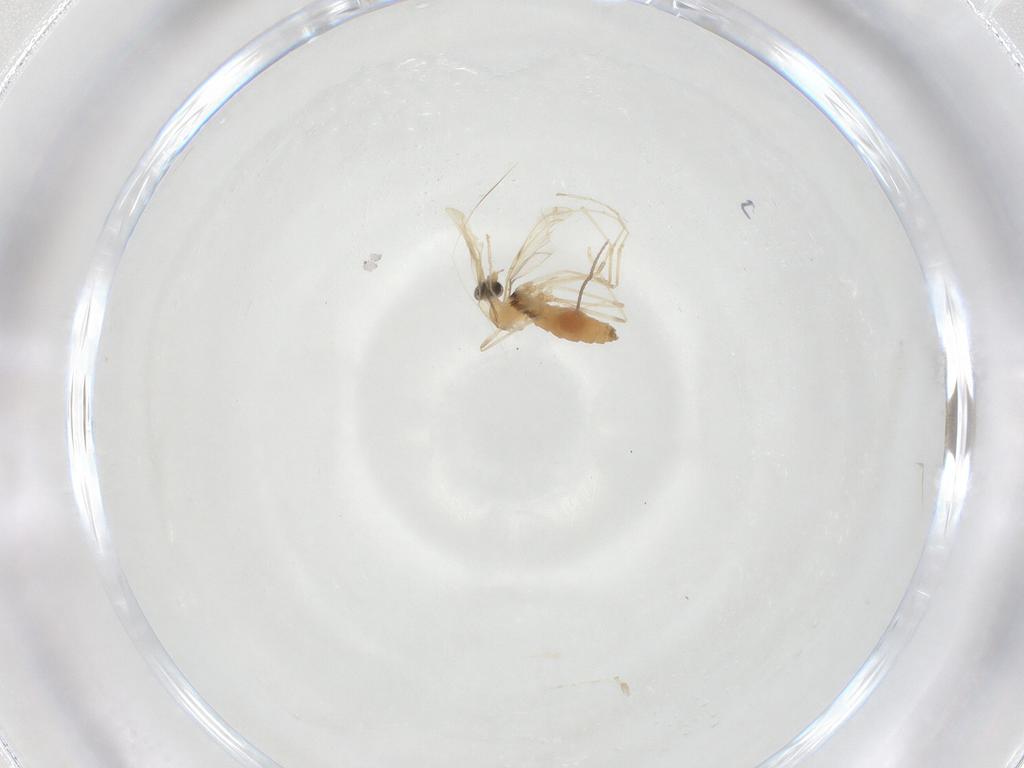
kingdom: Animalia
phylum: Arthropoda
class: Insecta
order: Diptera
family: Cecidomyiidae
